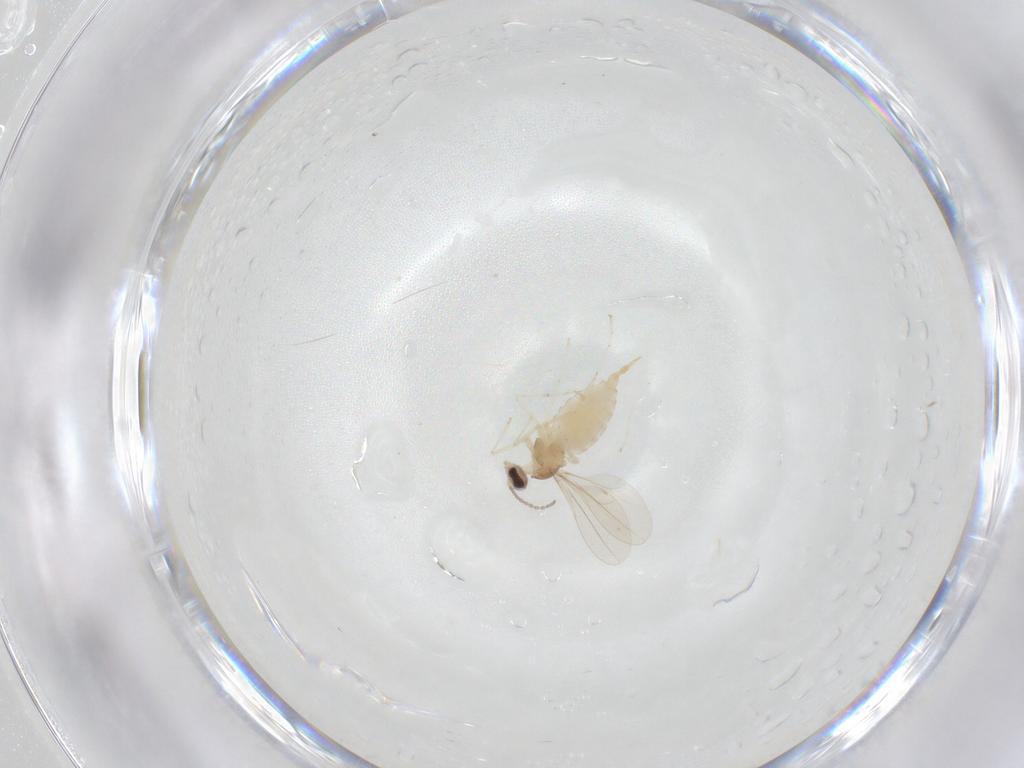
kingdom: Animalia
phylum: Arthropoda
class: Insecta
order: Diptera
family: Cecidomyiidae
